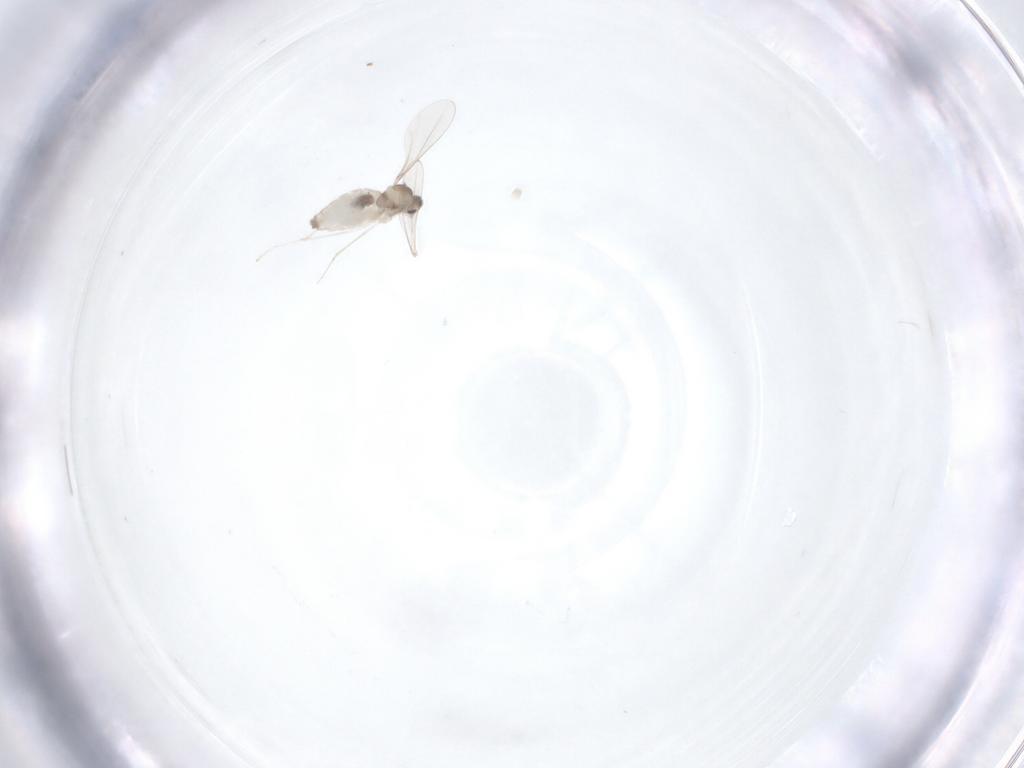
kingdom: Animalia
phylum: Arthropoda
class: Insecta
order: Diptera
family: Cecidomyiidae
